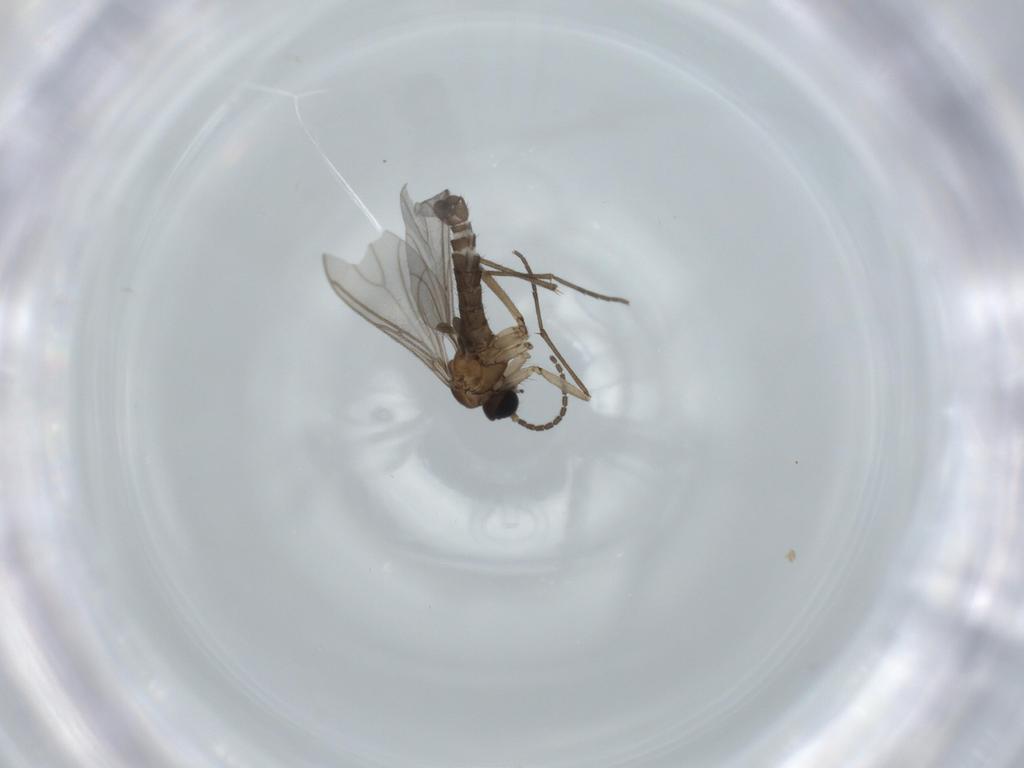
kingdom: Animalia
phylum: Arthropoda
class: Insecta
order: Diptera
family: Sciaridae
